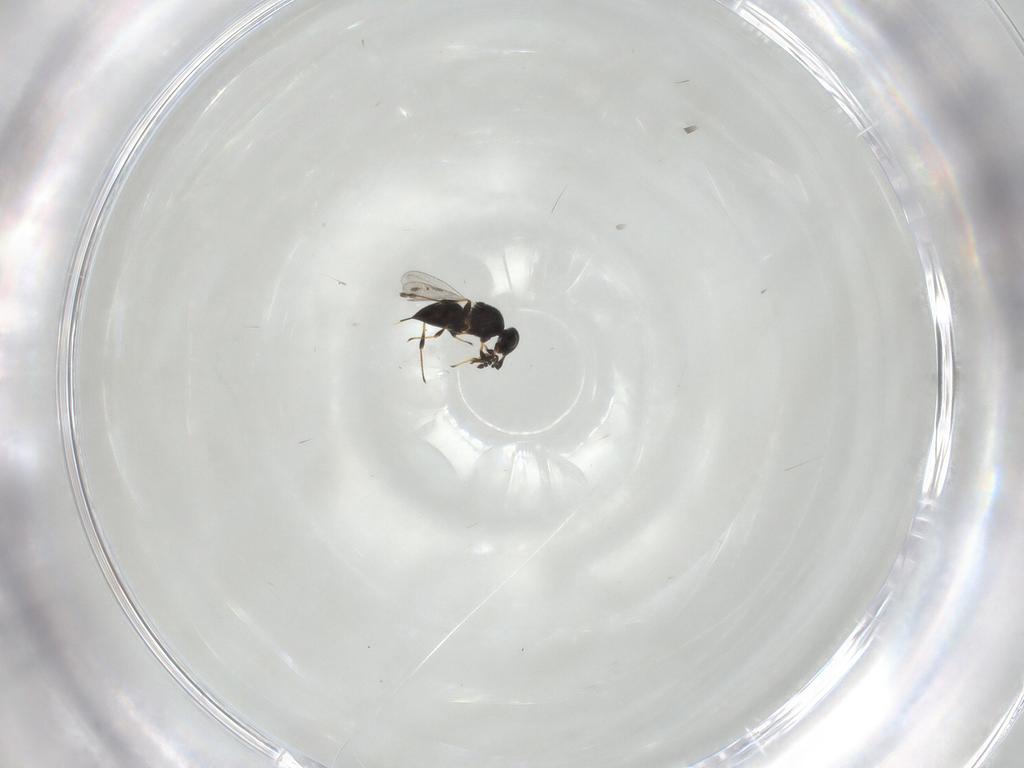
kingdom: Animalia
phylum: Arthropoda
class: Insecta
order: Hymenoptera
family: Platygastridae
